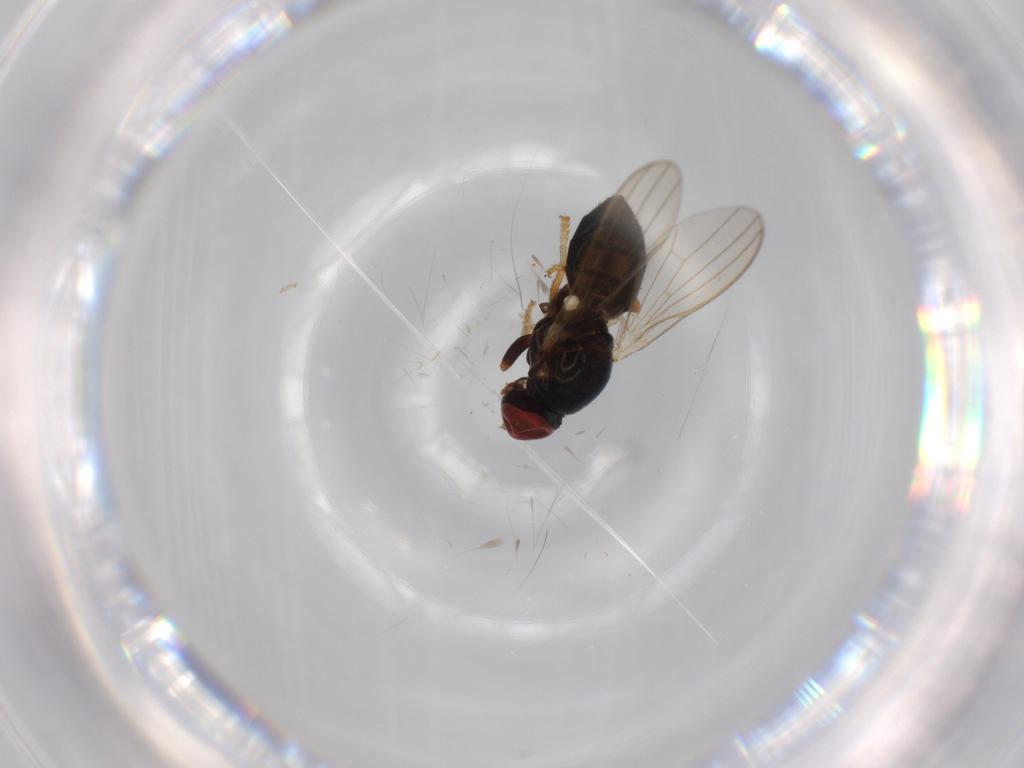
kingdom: Animalia
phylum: Arthropoda
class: Insecta
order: Diptera
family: Chamaemyiidae
